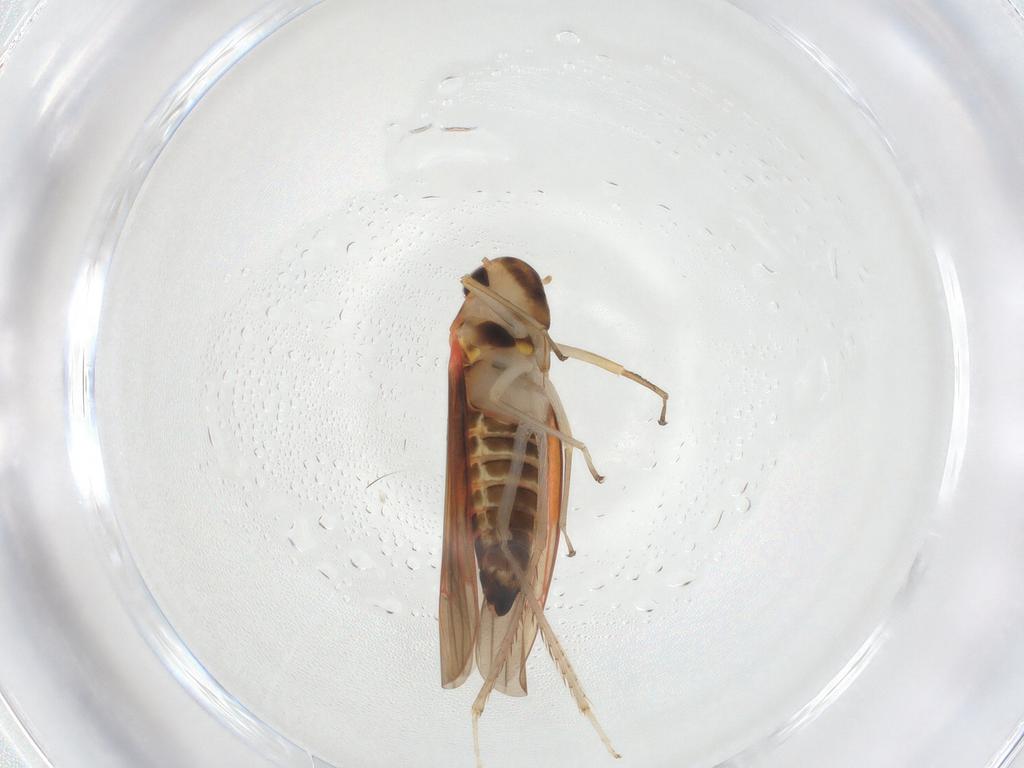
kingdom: Animalia
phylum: Arthropoda
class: Insecta
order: Hemiptera
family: Cicadellidae
